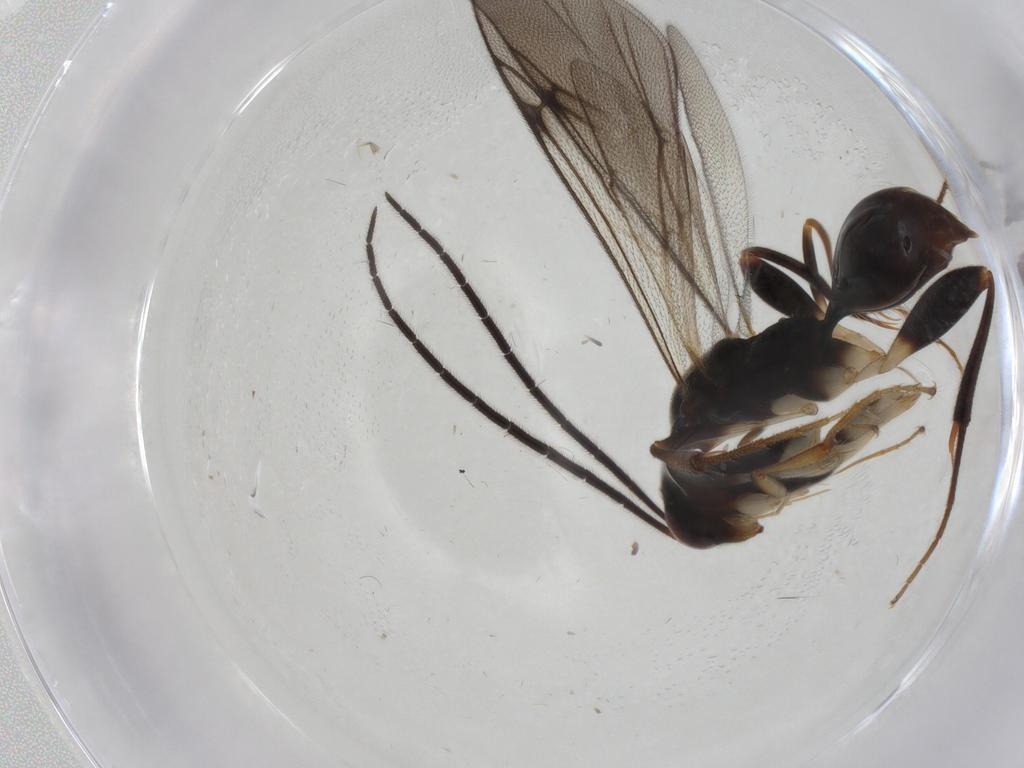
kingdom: Animalia
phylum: Arthropoda
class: Insecta
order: Hymenoptera
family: Proctotrupidae
